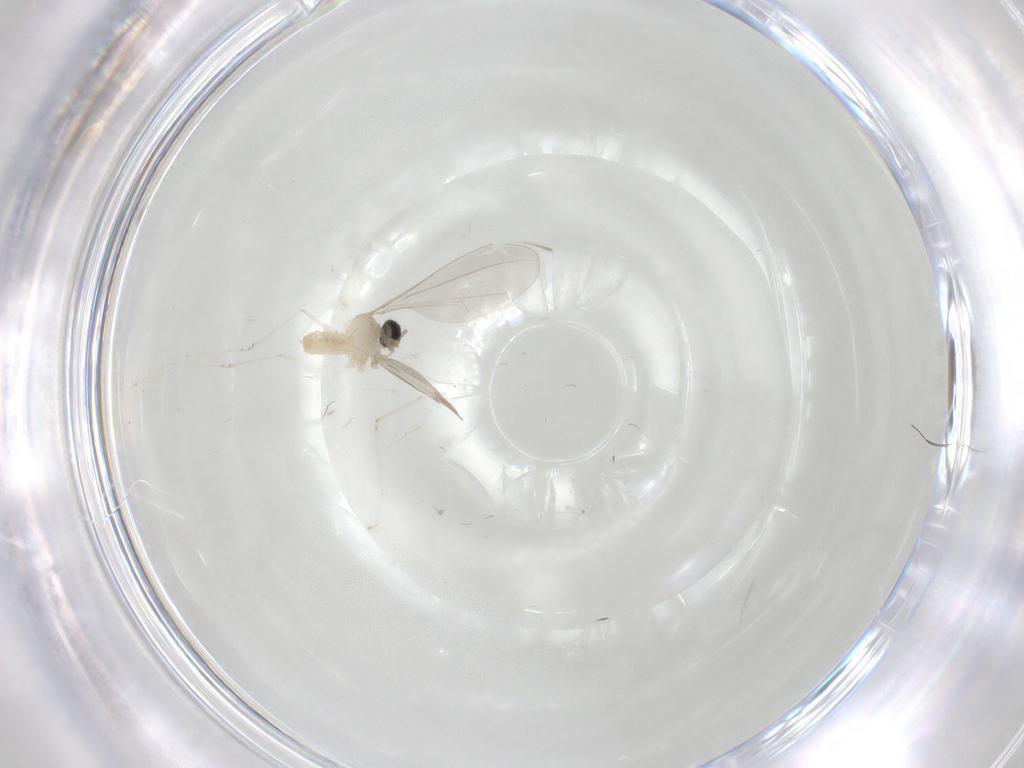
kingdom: Animalia
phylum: Arthropoda
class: Insecta
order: Diptera
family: Cecidomyiidae
